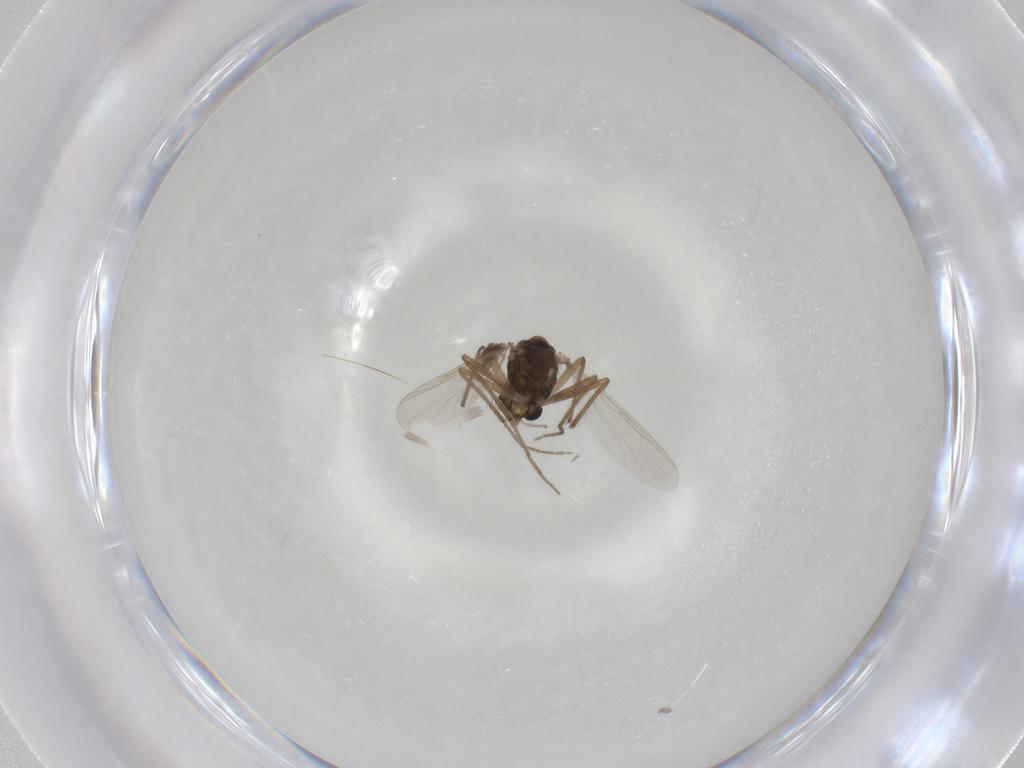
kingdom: Animalia
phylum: Arthropoda
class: Insecta
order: Diptera
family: Chironomidae
